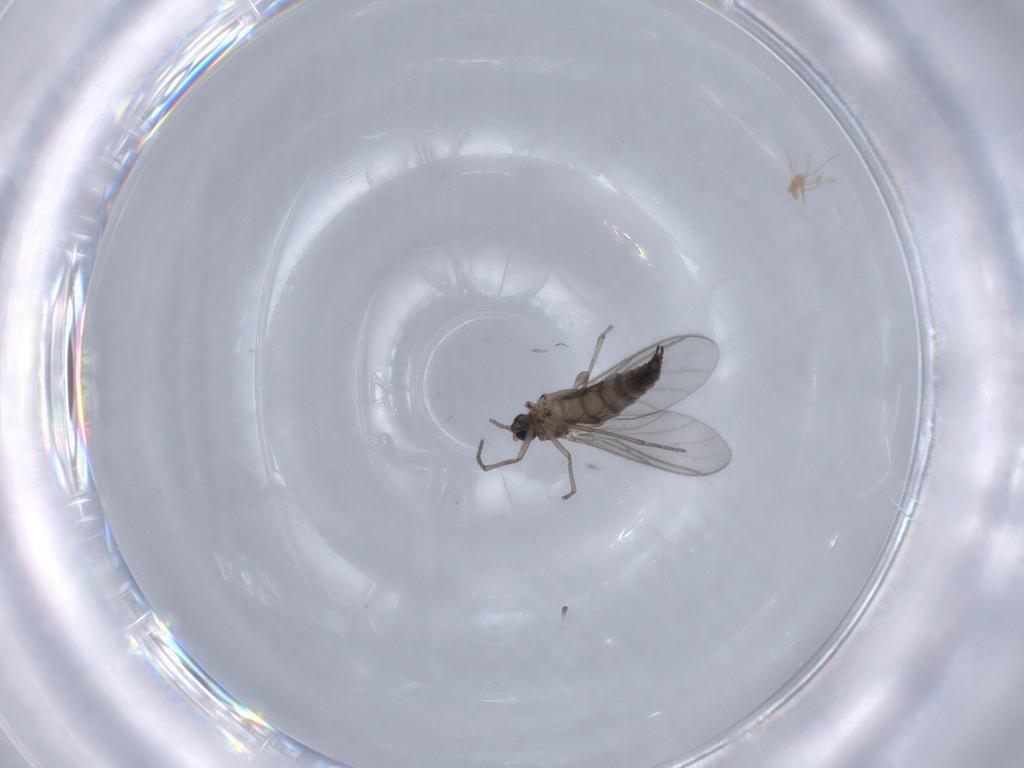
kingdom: Animalia
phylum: Arthropoda
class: Insecta
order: Diptera
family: Sciaridae
